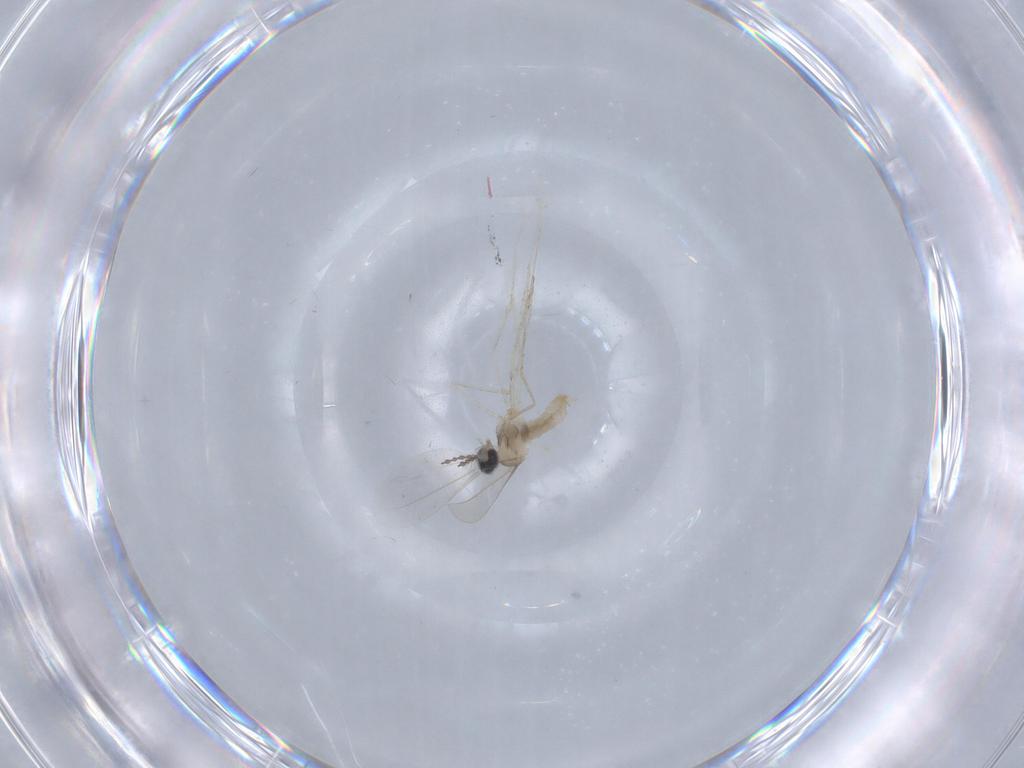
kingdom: Animalia
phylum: Arthropoda
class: Insecta
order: Diptera
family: Cecidomyiidae
